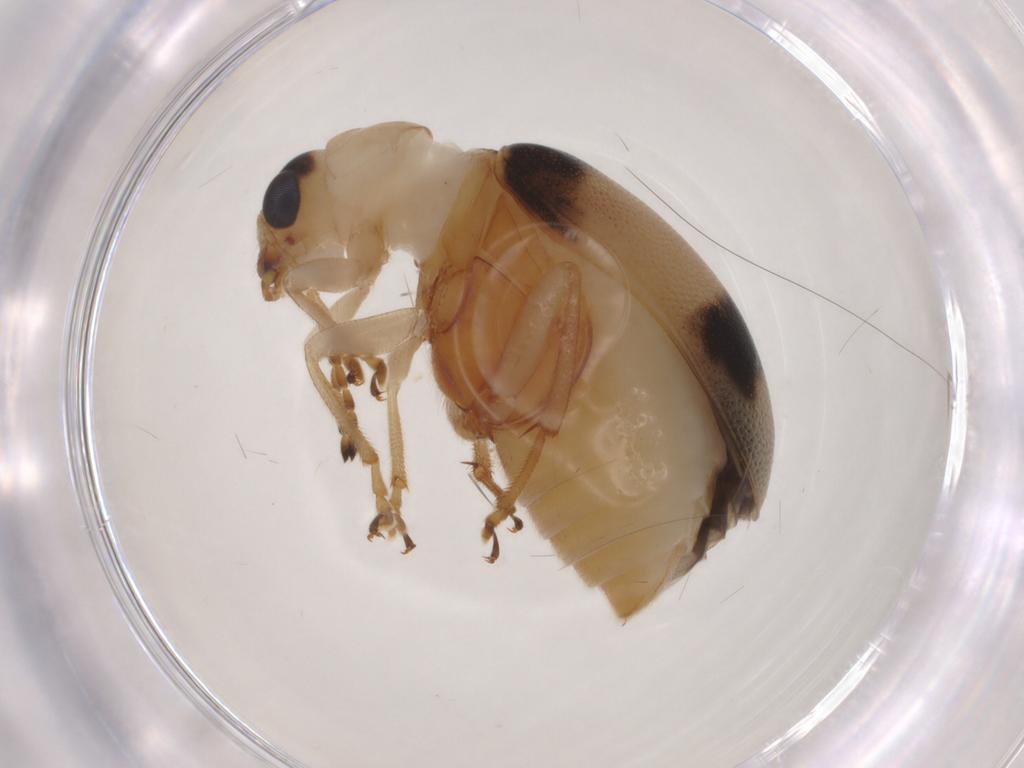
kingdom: Animalia
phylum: Arthropoda
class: Insecta
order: Coleoptera
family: Chrysomelidae
